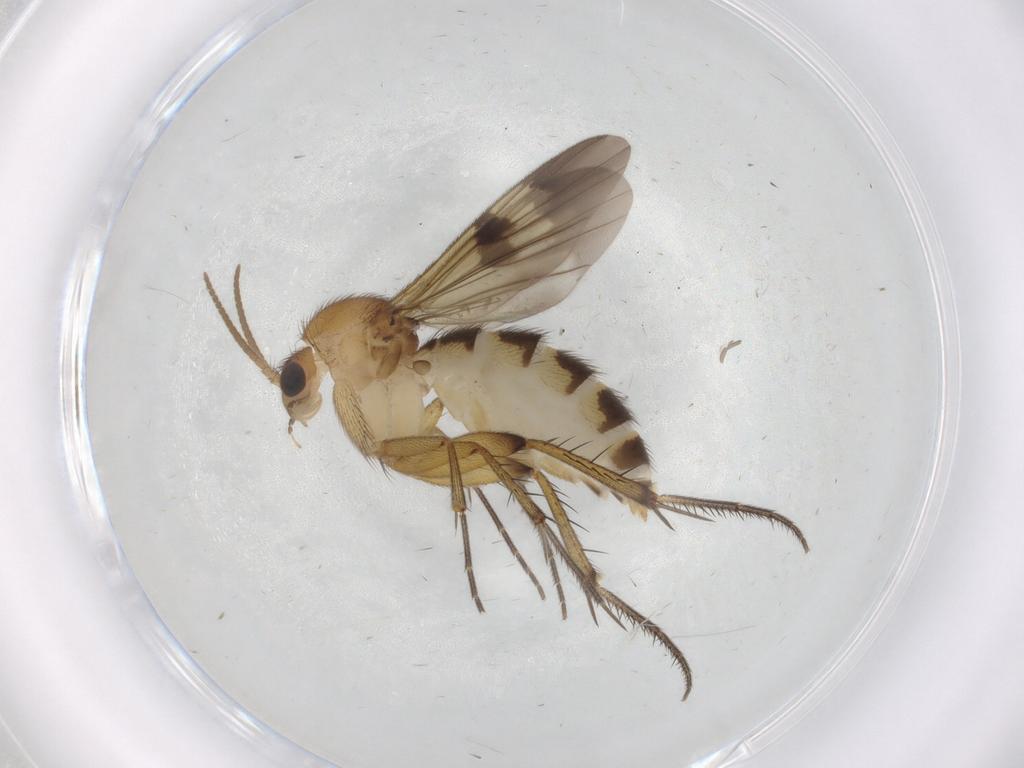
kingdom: Animalia
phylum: Arthropoda
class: Insecta
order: Diptera
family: Mycetophilidae
